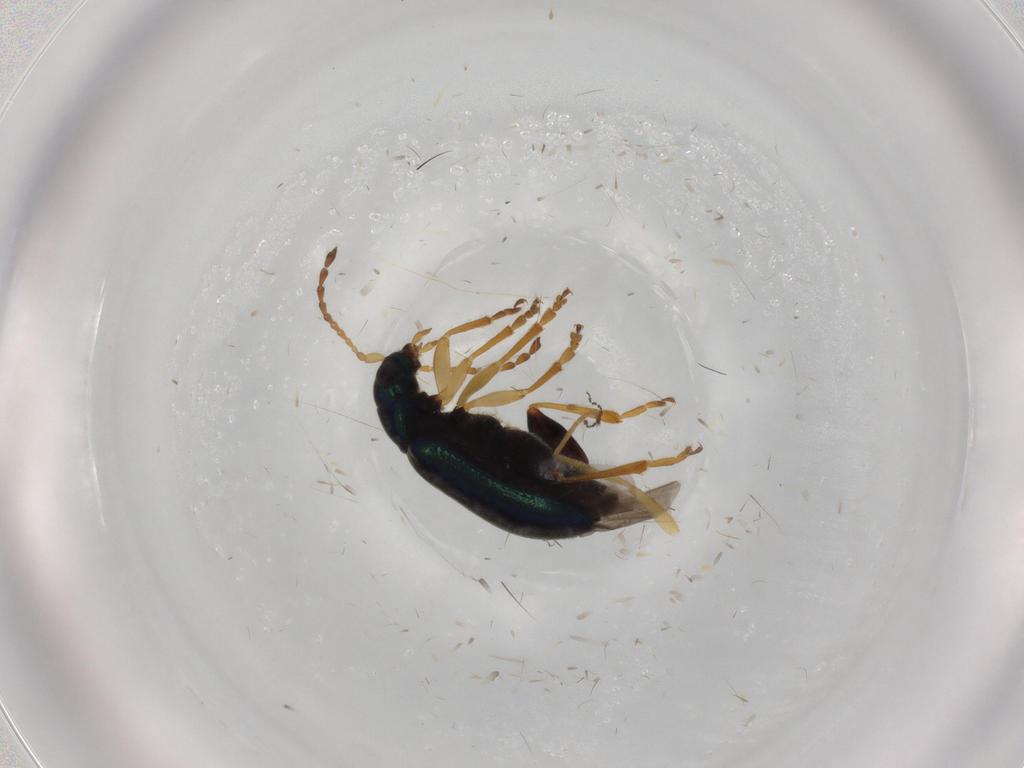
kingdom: Animalia
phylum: Arthropoda
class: Insecta
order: Coleoptera
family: Chrysomelidae
